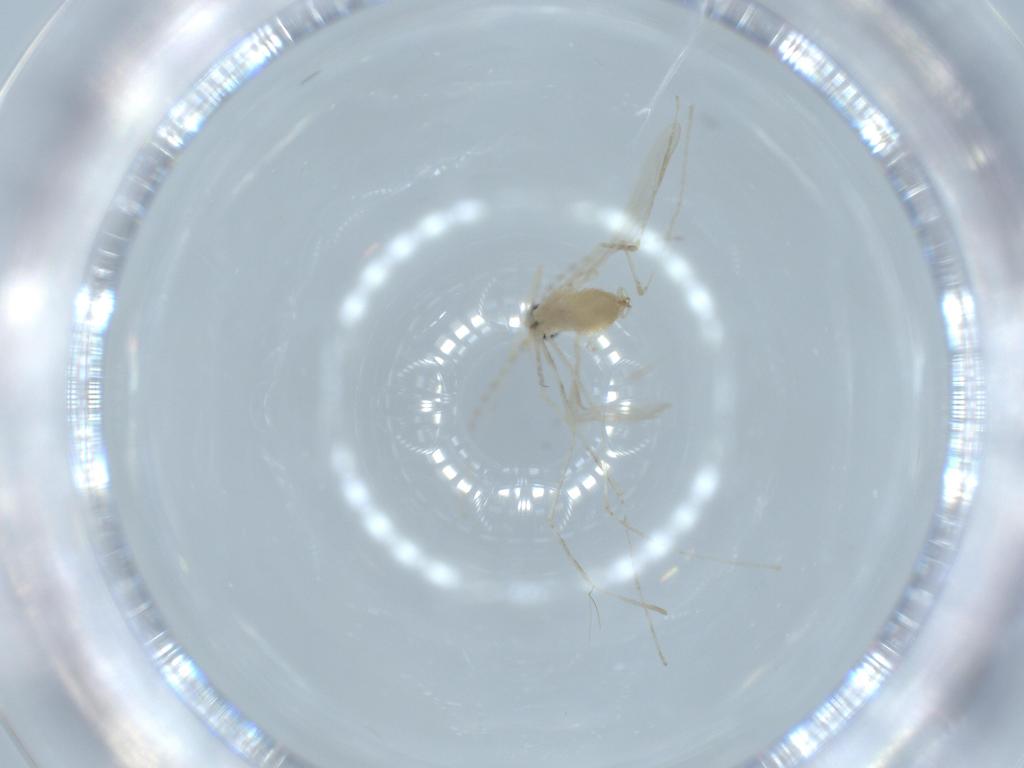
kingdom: Animalia
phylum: Arthropoda
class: Insecta
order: Diptera
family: Cecidomyiidae
